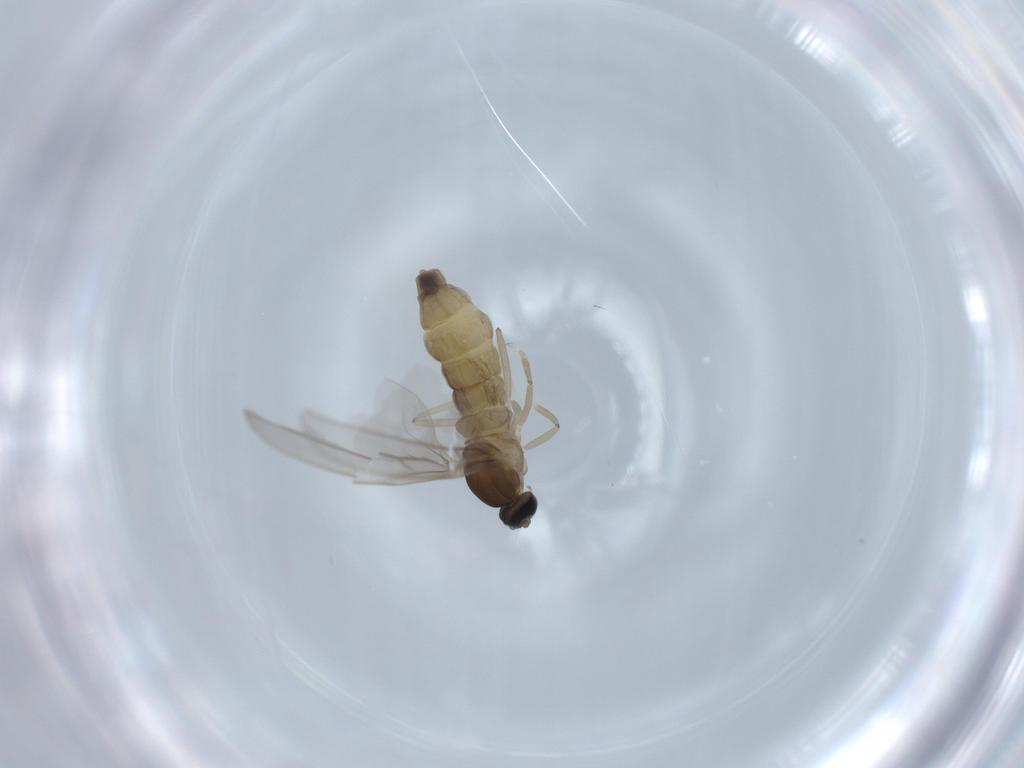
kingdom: Animalia
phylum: Arthropoda
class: Insecta
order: Diptera
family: Cecidomyiidae
